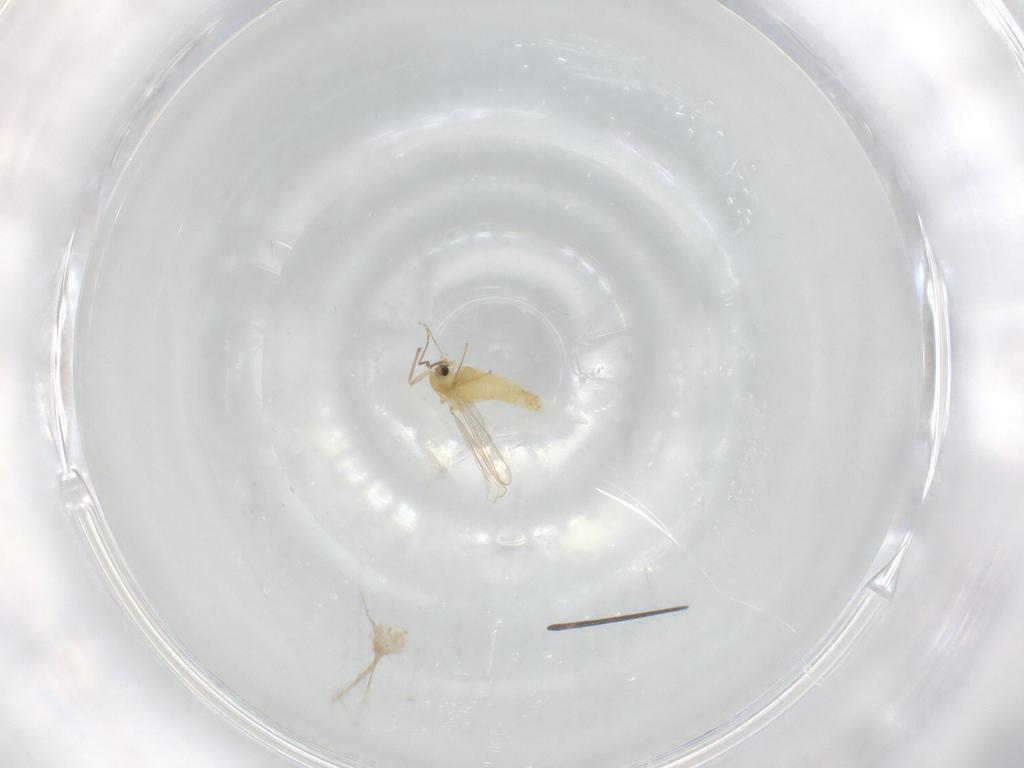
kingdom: Animalia
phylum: Arthropoda
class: Insecta
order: Diptera
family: Chironomidae
